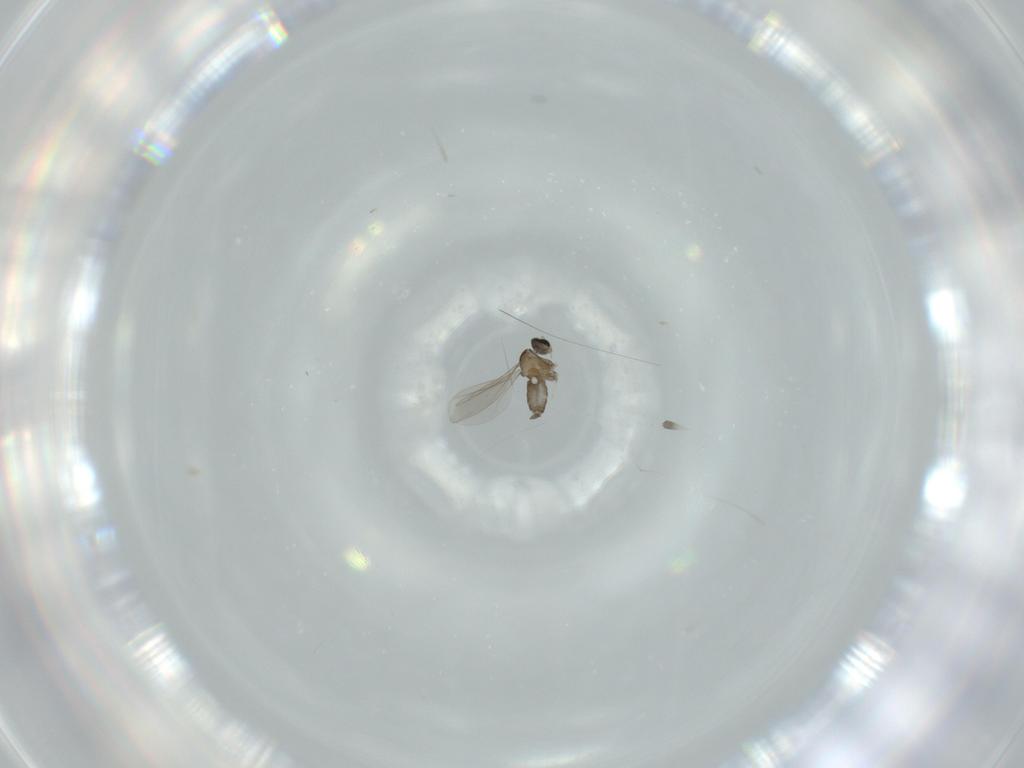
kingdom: Animalia
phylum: Arthropoda
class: Insecta
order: Diptera
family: Cecidomyiidae
